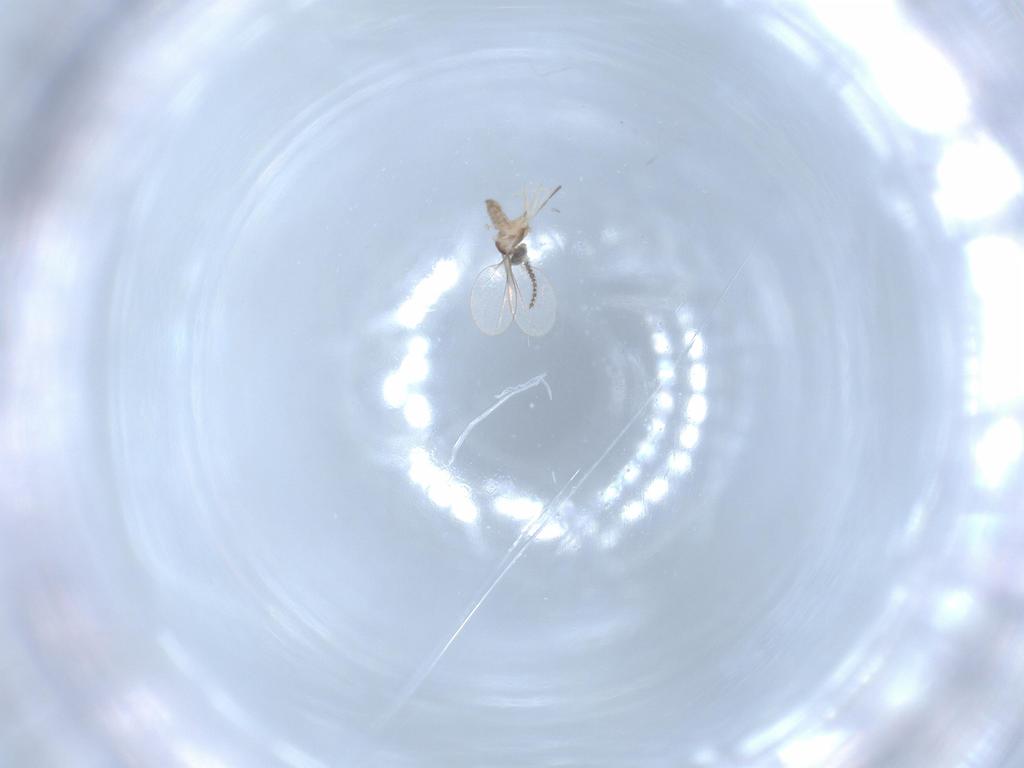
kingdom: Animalia
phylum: Arthropoda
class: Insecta
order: Diptera
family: Cecidomyiidae
